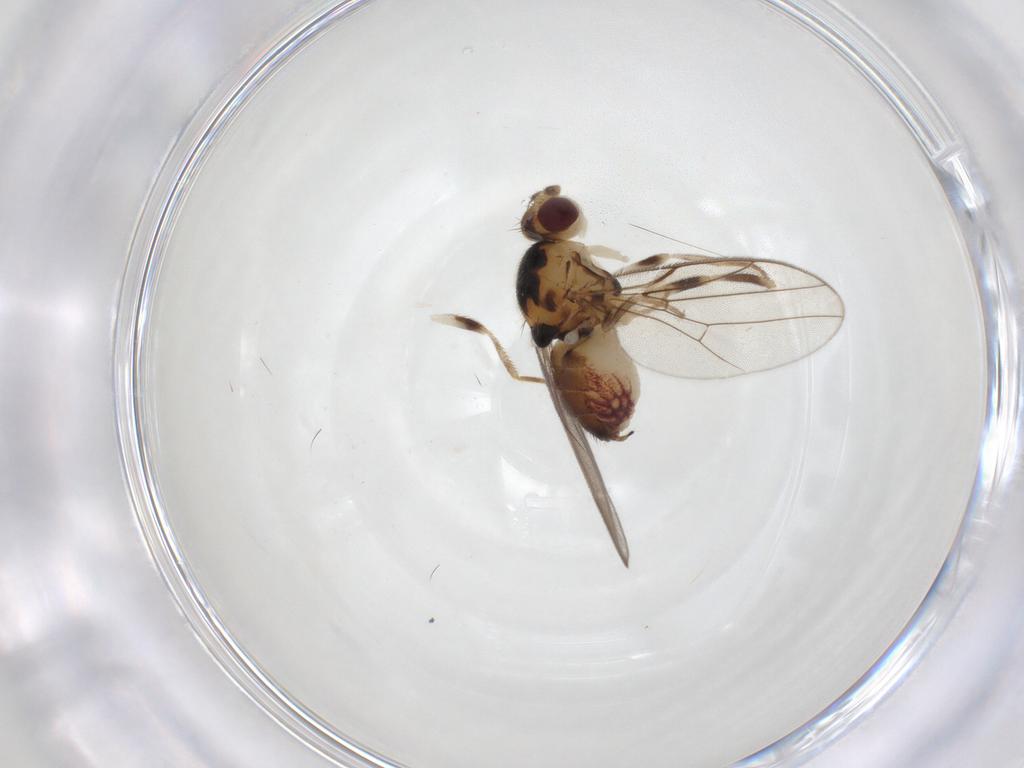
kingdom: Animalia
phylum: Arthropoda
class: Insecta
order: Diptera
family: Chloropidae
